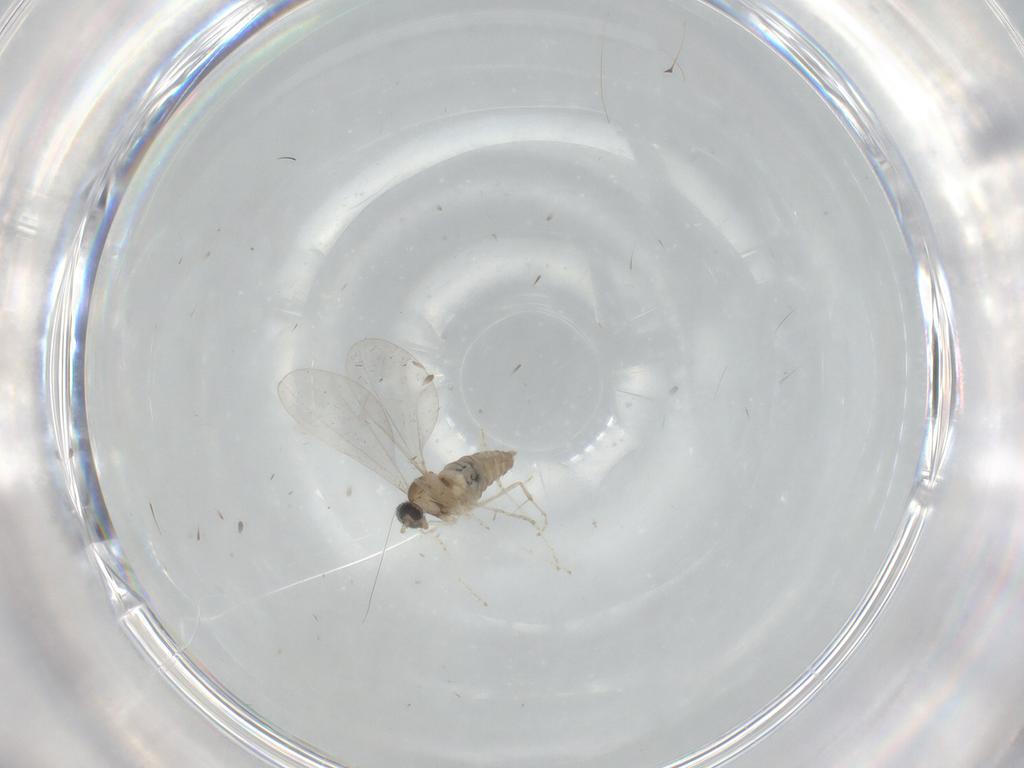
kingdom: Animalia
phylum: Arthropoda
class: Insecta
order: Diptera
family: Cecidomyiidae
